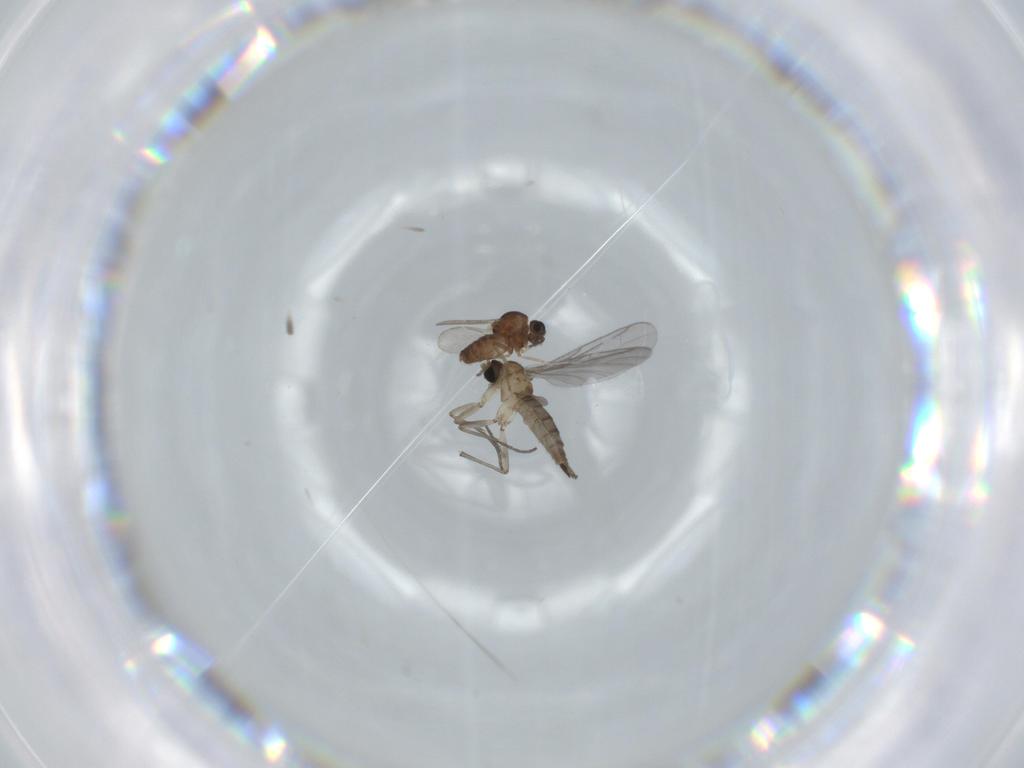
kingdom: Animalia
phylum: Arthropoda
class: Insecta
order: Diptera
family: Ceratopogonidae
